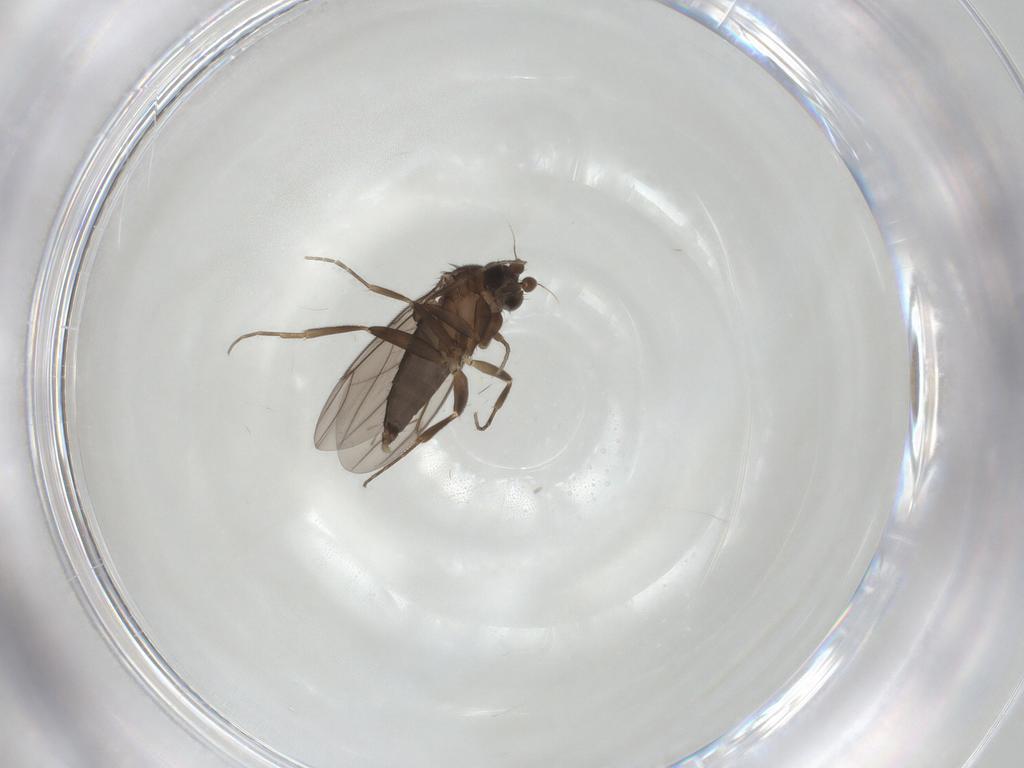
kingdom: Animalia
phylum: Arthropoda
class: Insecta
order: Diptera
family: Phoridae
